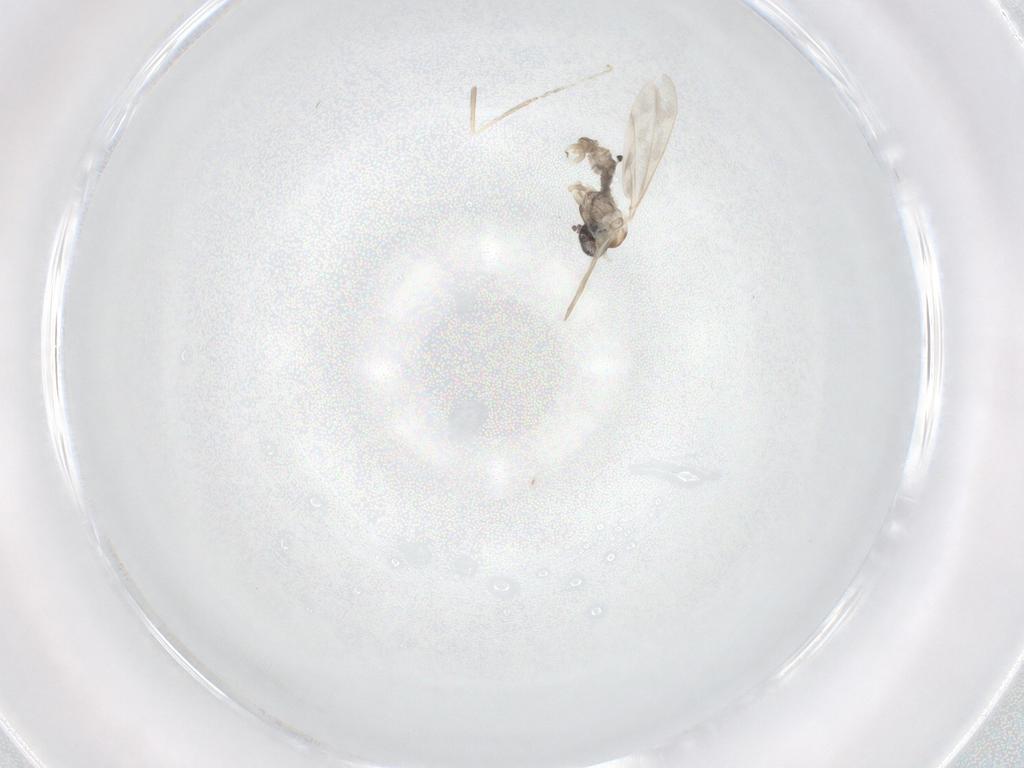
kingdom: Animalia
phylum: Arthropoda
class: Insecta
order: Diptera
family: Cecidomyiidae
